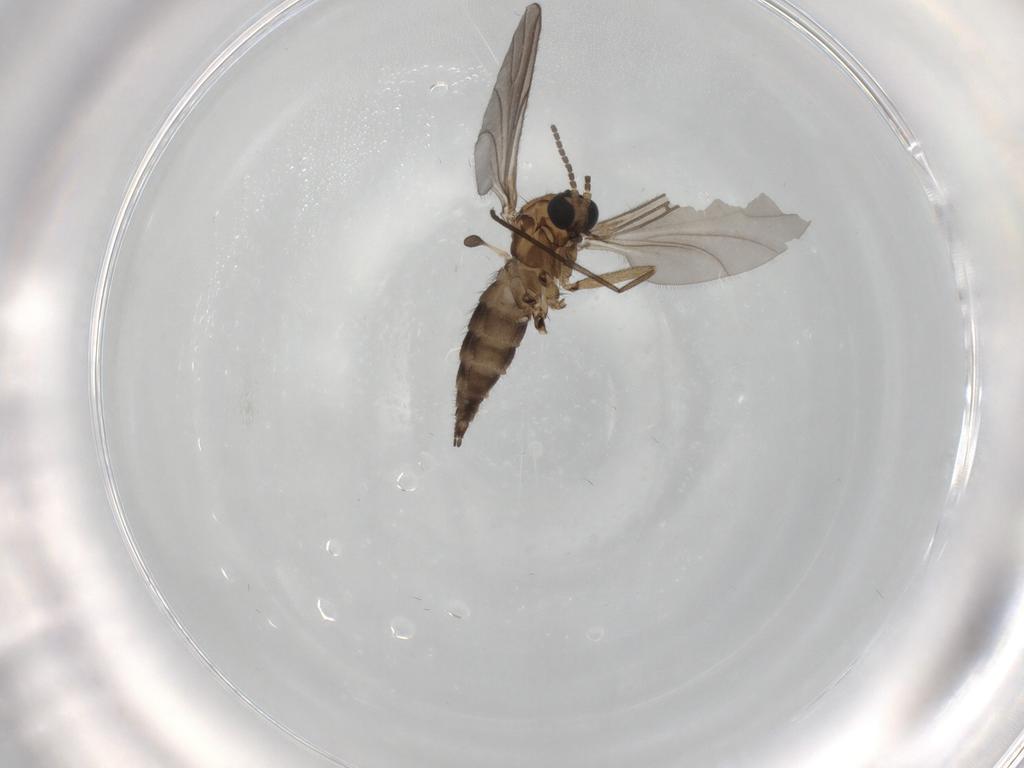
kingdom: Animalia
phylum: Arthropoda
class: Insecta
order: Diptera
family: Sciaridae
